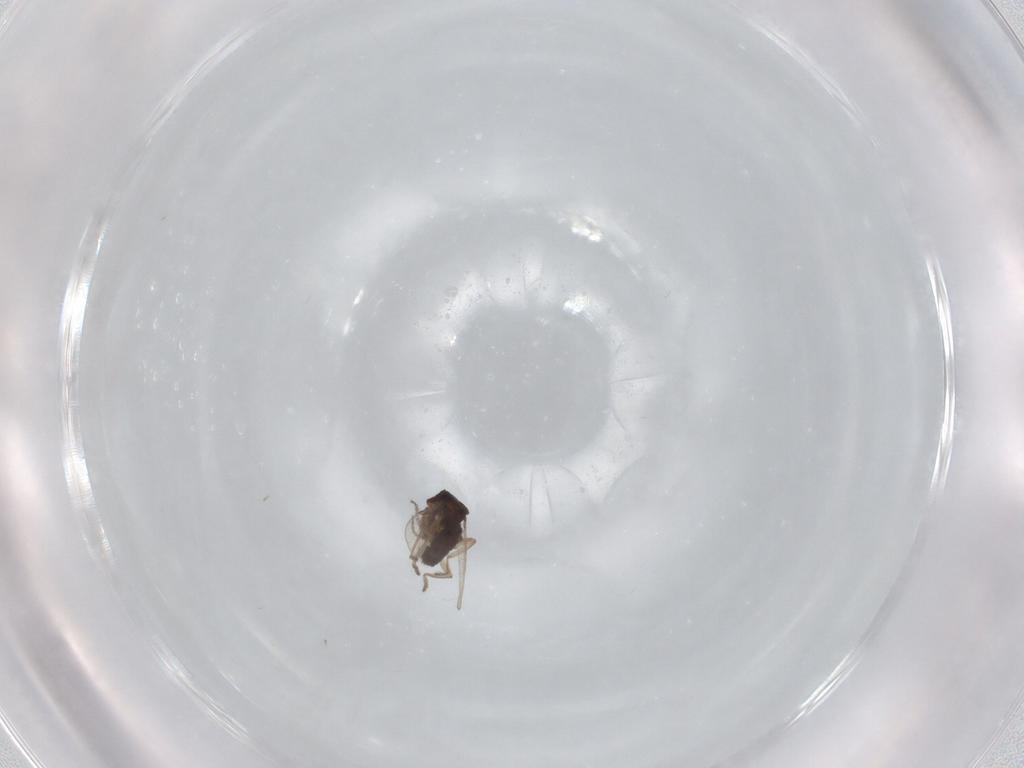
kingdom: Animalia
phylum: Arthropoda
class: Insecta
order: Diptera
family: Ceratopogonidae
